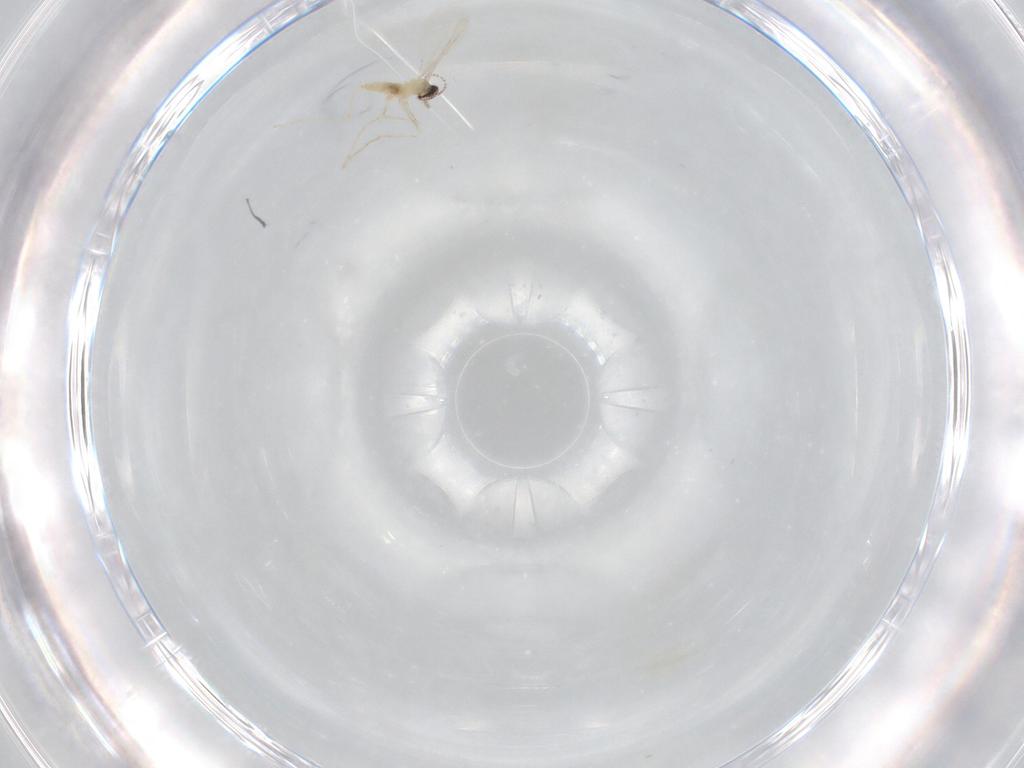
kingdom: Animalia
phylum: Arthropoda
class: Insecta
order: Diptera
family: Cecidomyiidae
